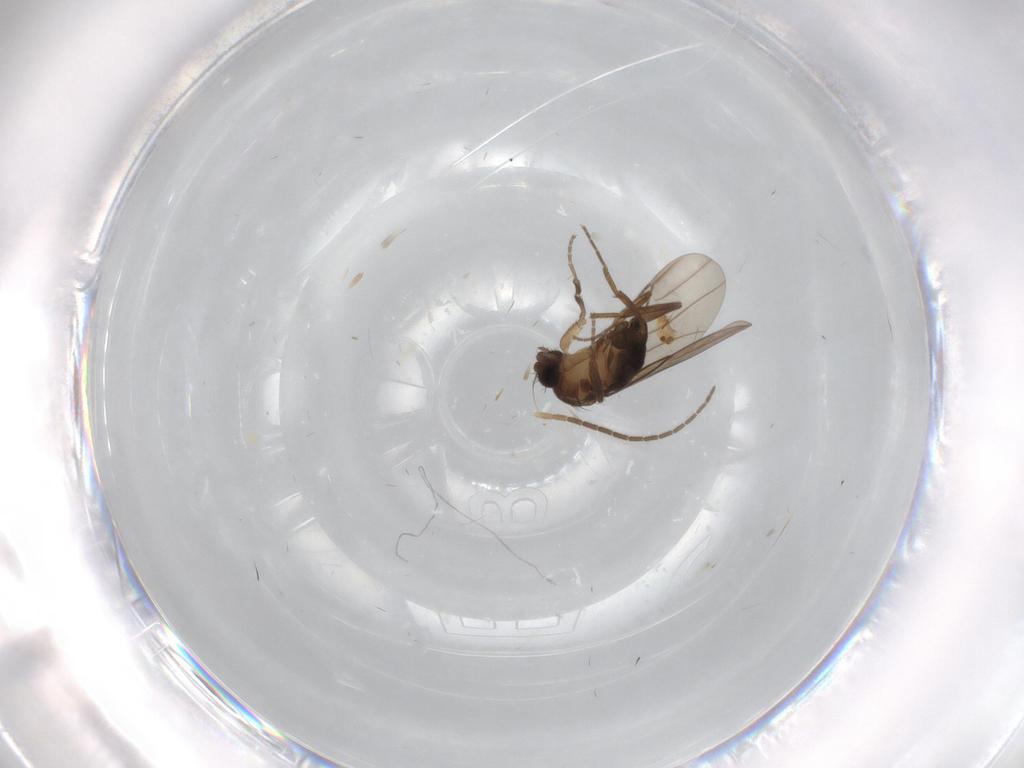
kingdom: Animalia
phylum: Arthropoda
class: Insecta
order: Diptera
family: Phoridae
